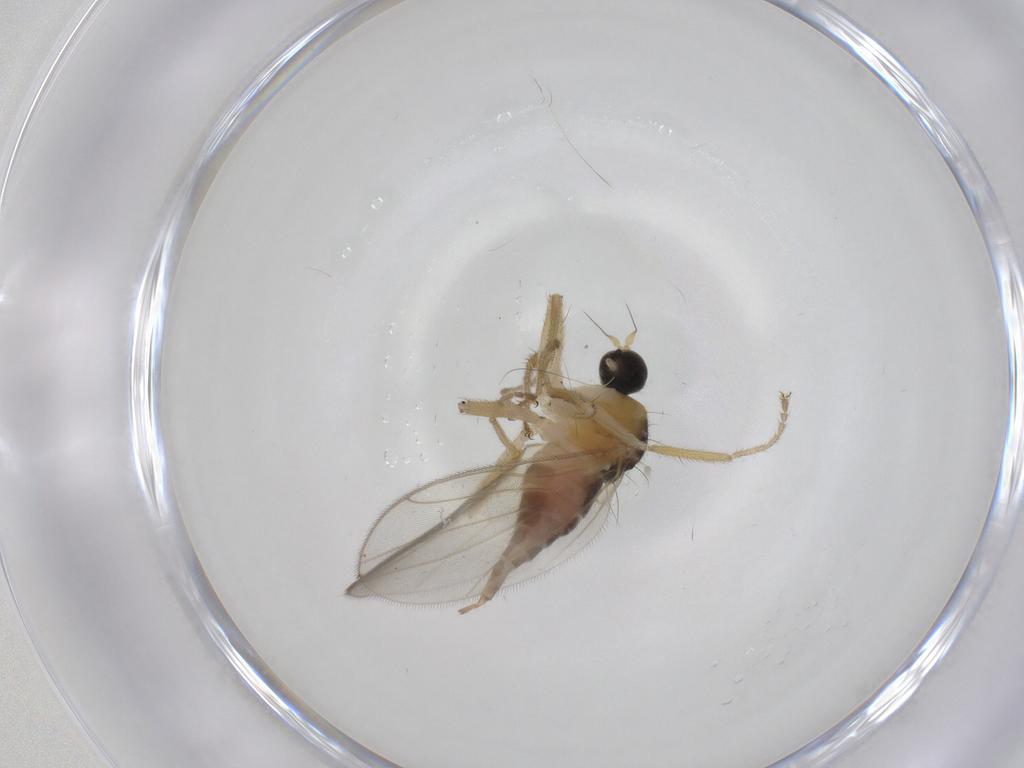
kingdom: Animalia
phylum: Arthropoda
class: Insecta
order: Diptera
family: Hybotidae
